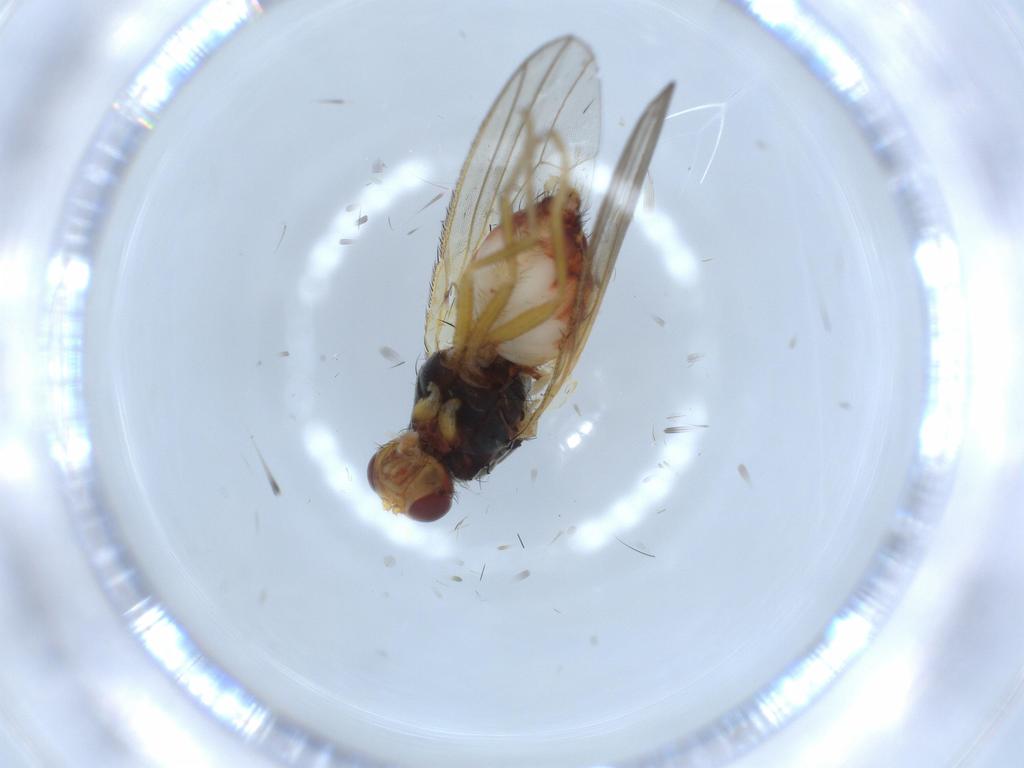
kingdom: Animalia
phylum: Arthropoda
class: Insecta
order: Diptera
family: Heleomyzidae
